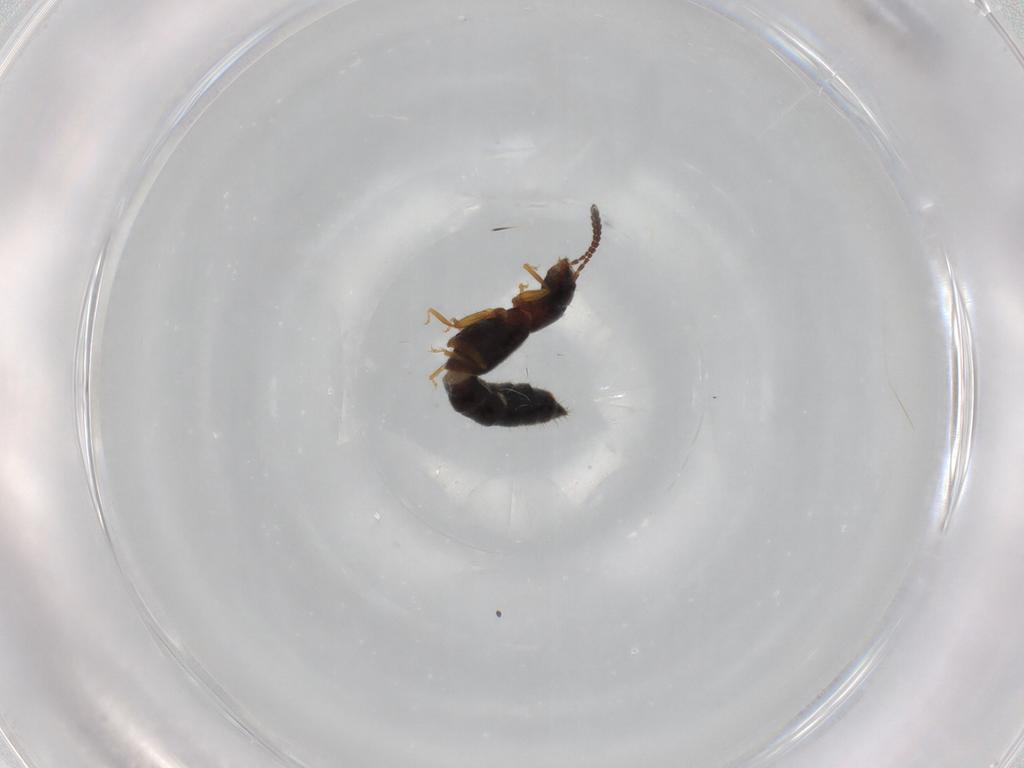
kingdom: Animalia
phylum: Arthropoda
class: Insecta
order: Coleoptera
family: Staphylinidae
